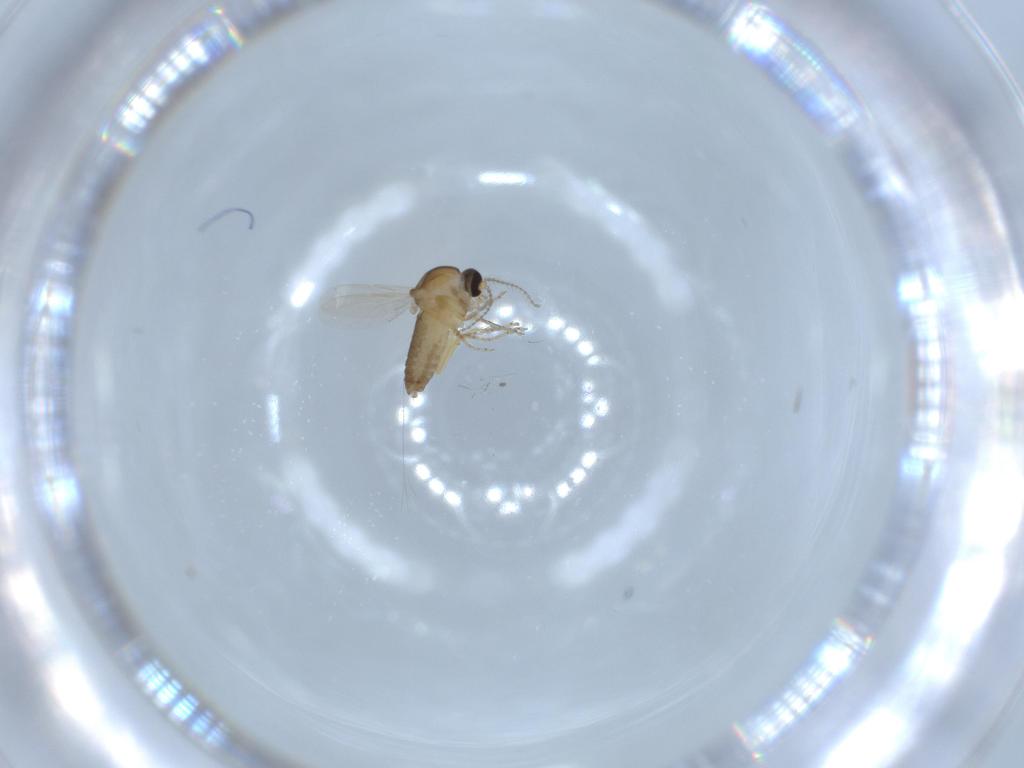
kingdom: Animalia
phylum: Arthropoda
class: Insecta
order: Diptera
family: Ceratopogonidae
